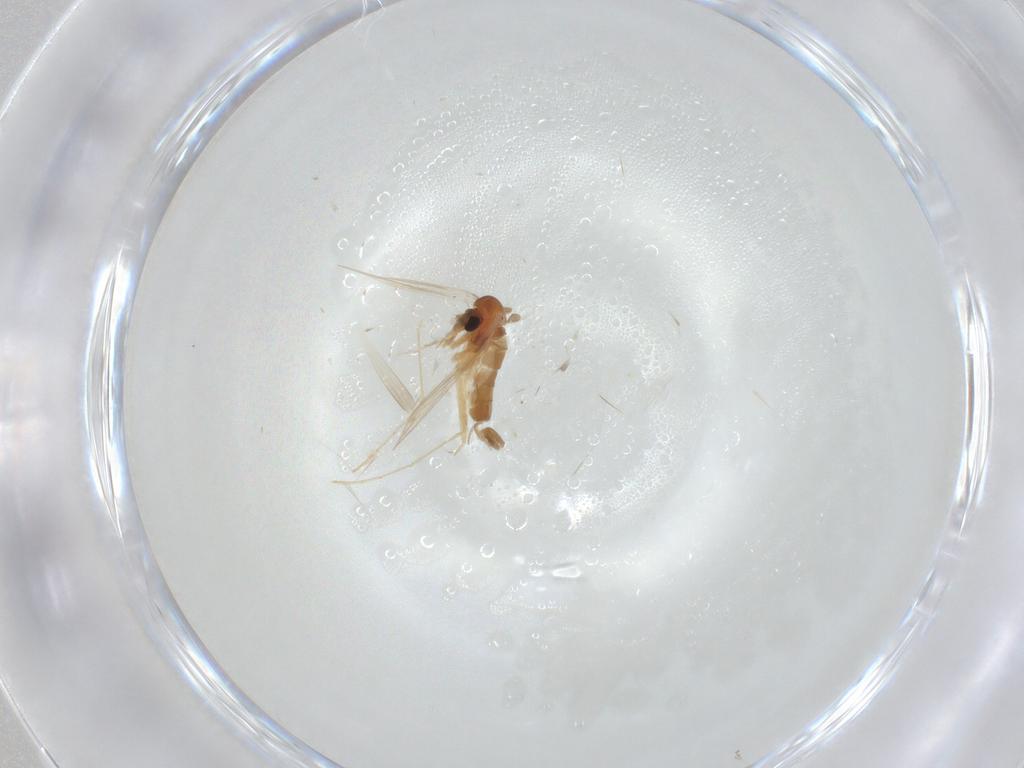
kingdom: Animalia
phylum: Arthropoda
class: Insecta
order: Diptera
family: Psychodidae
